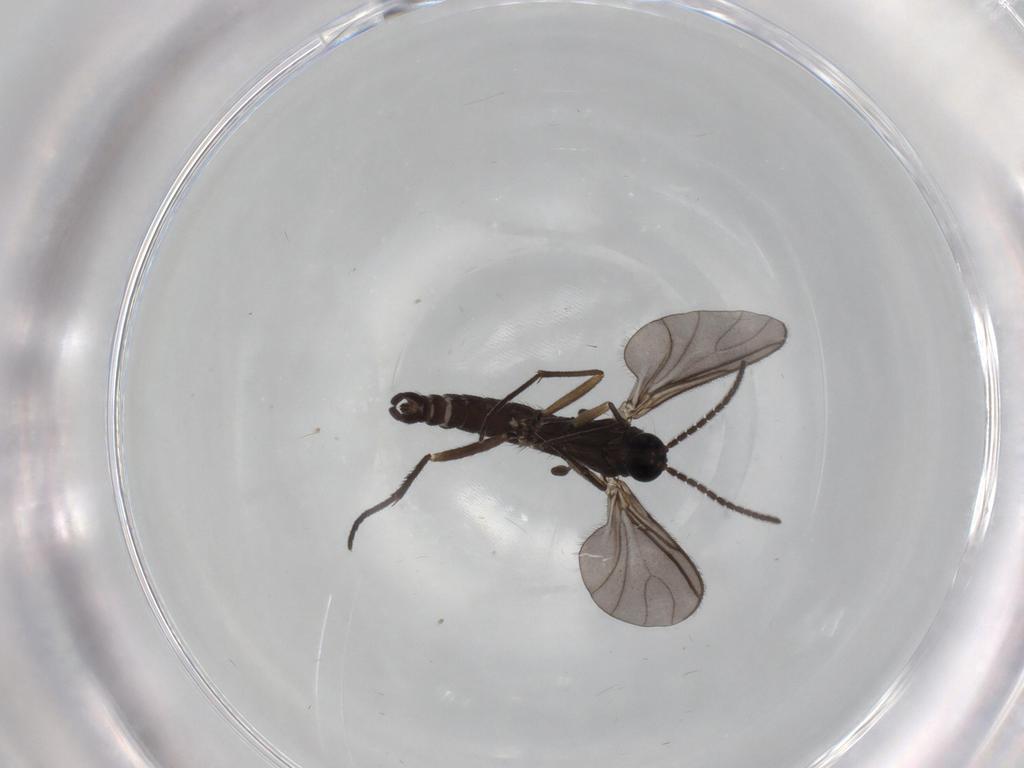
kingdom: Animalia
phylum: Arthropoda
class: Insecta
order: Diptera
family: Sciaridae
